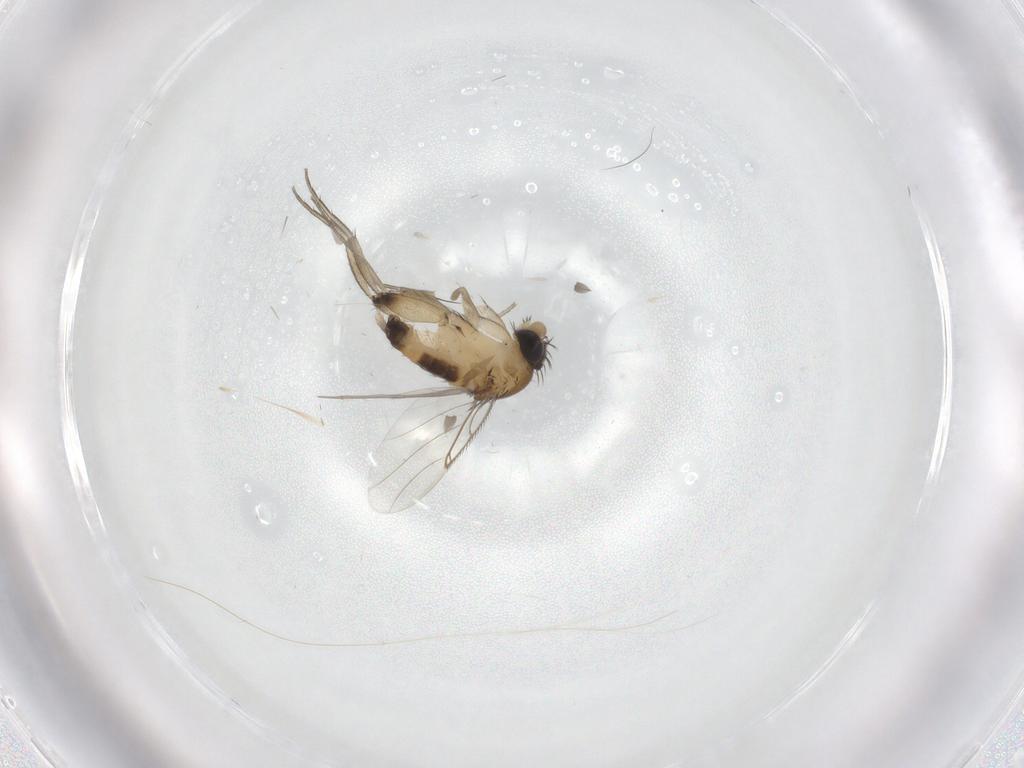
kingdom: Animalia
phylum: Arthropoda
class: Insecta
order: Diptera
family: Phoridae
